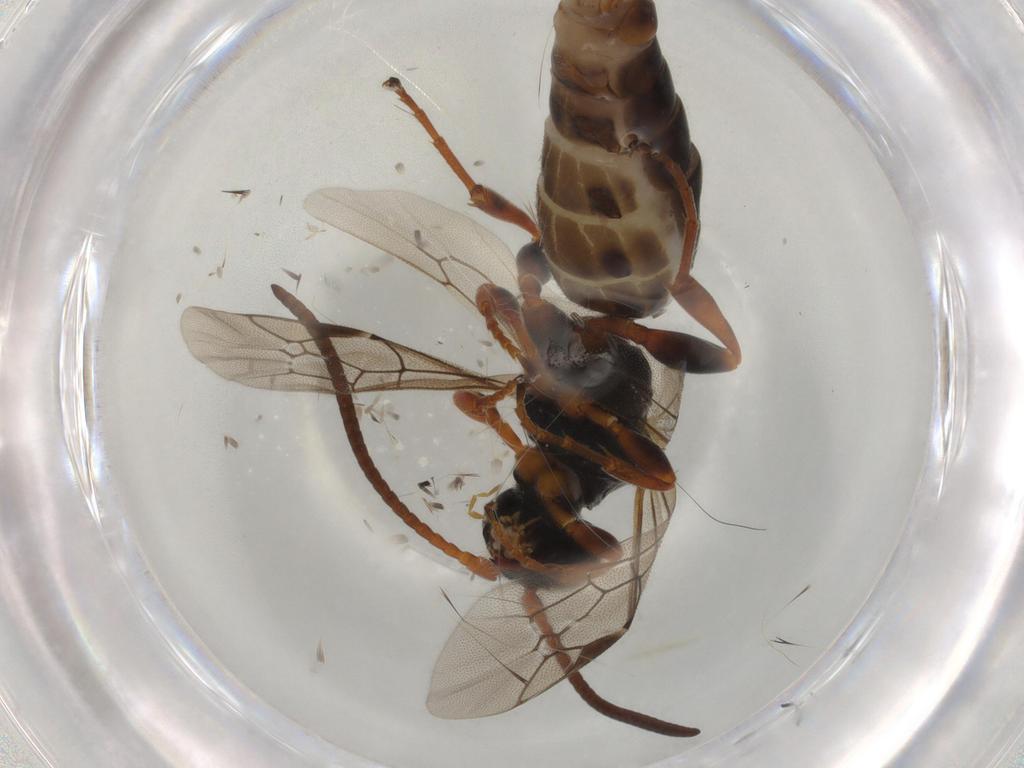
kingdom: Animalia
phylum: Arthropoda
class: Insecta
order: Hymenoptera
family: Ichneumonidae
